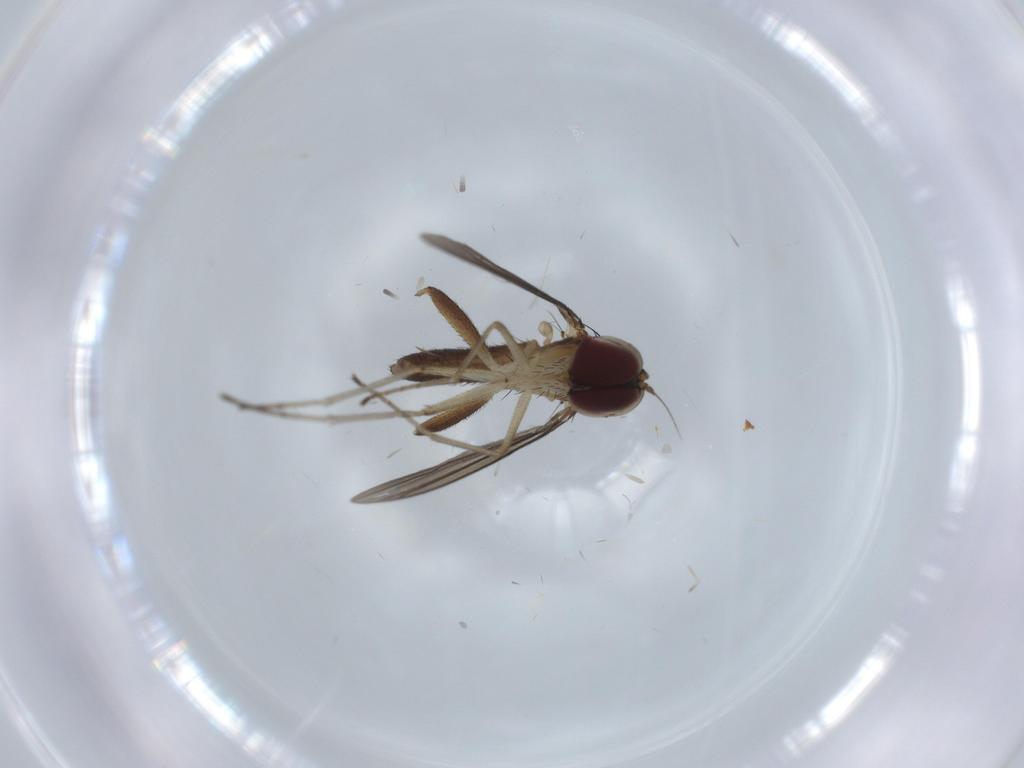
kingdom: Animalia
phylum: Arthropoda
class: Insecta
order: Diptera
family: Phoridae
